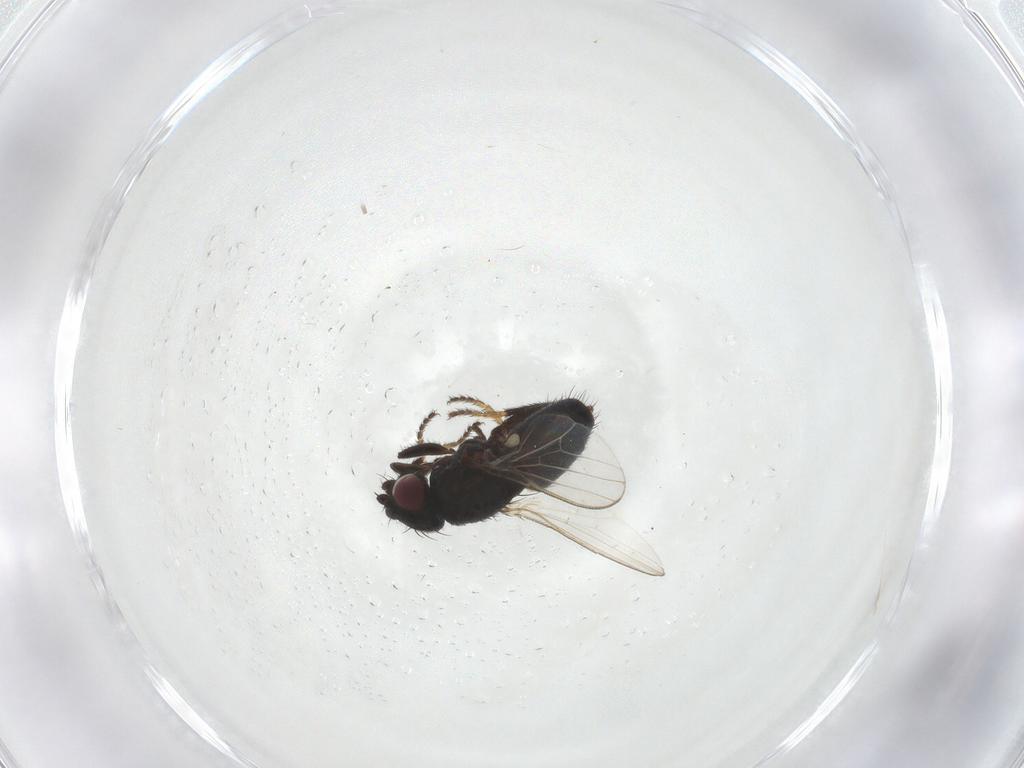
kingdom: Animalia
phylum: Arthropoda
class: Insecta
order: Diptera
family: Milichiidae
